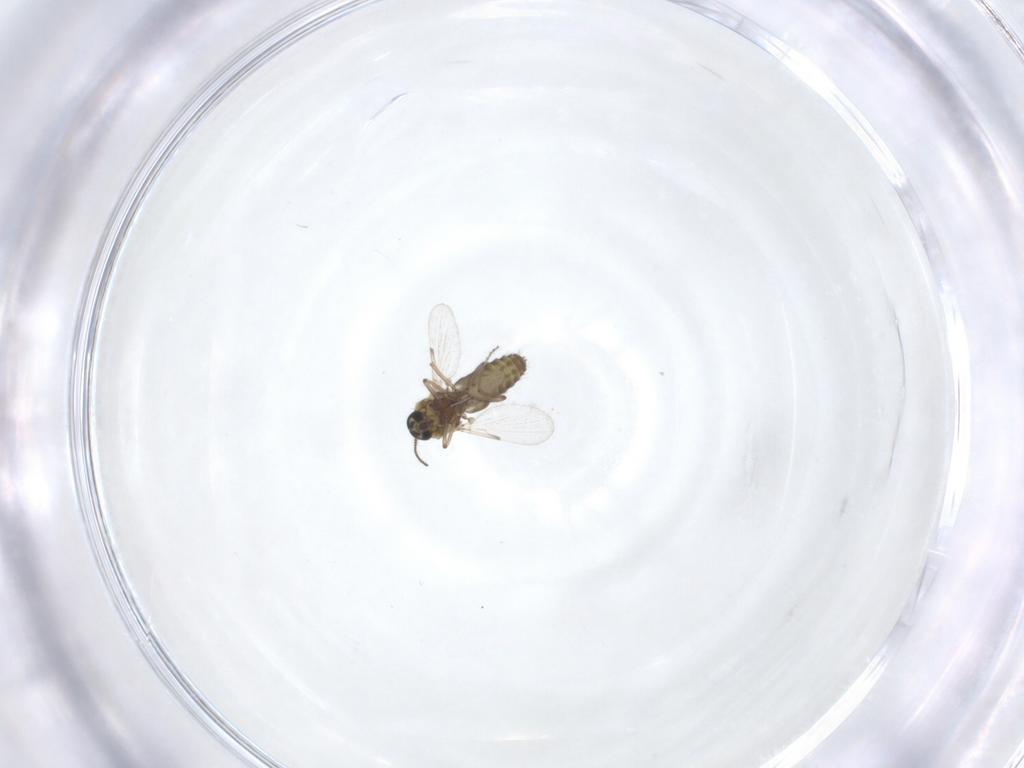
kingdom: Animalia
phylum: Arthropoda
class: Insecta
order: Diptera
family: Ceratopogonidae
